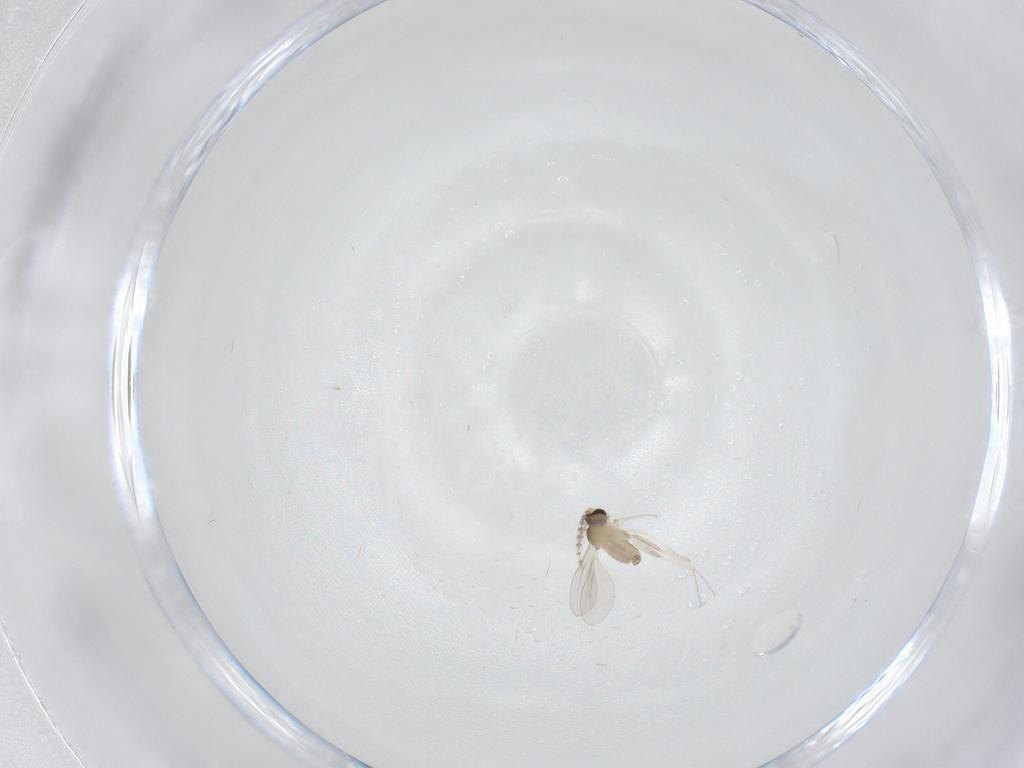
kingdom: Animalia
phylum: Arthropoda
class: Insecta
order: Diptera
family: Cecidomyiidae
